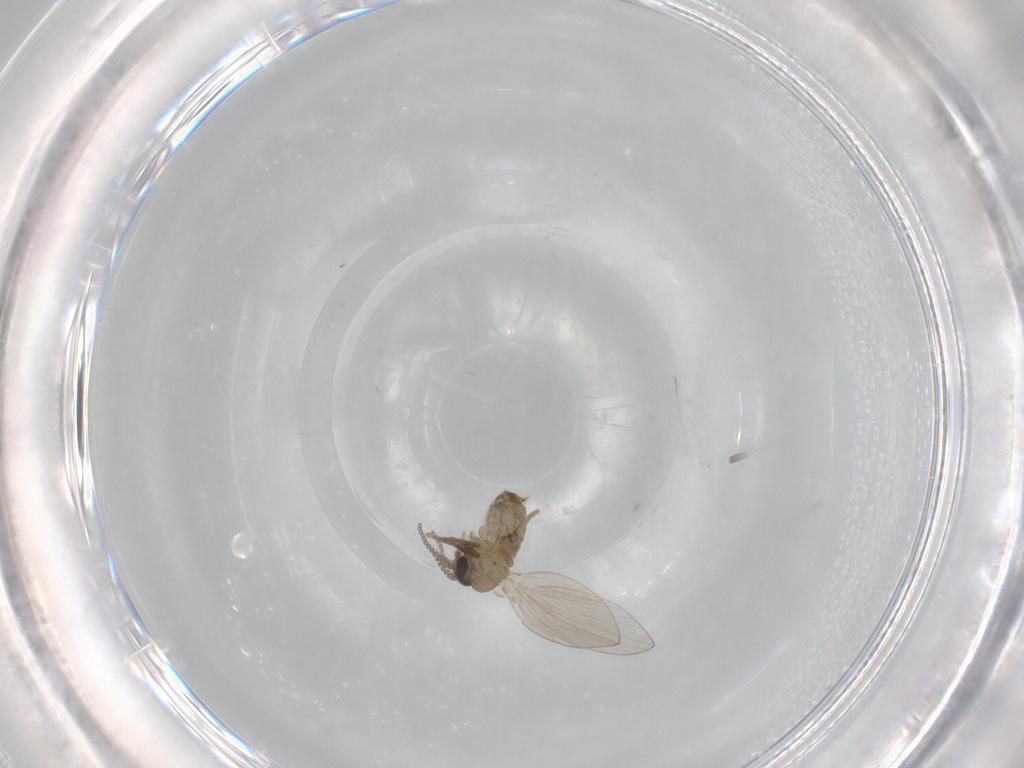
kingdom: Animalia
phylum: Arthropoda
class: Insecta
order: Diptera
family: Cecidomyiidae
